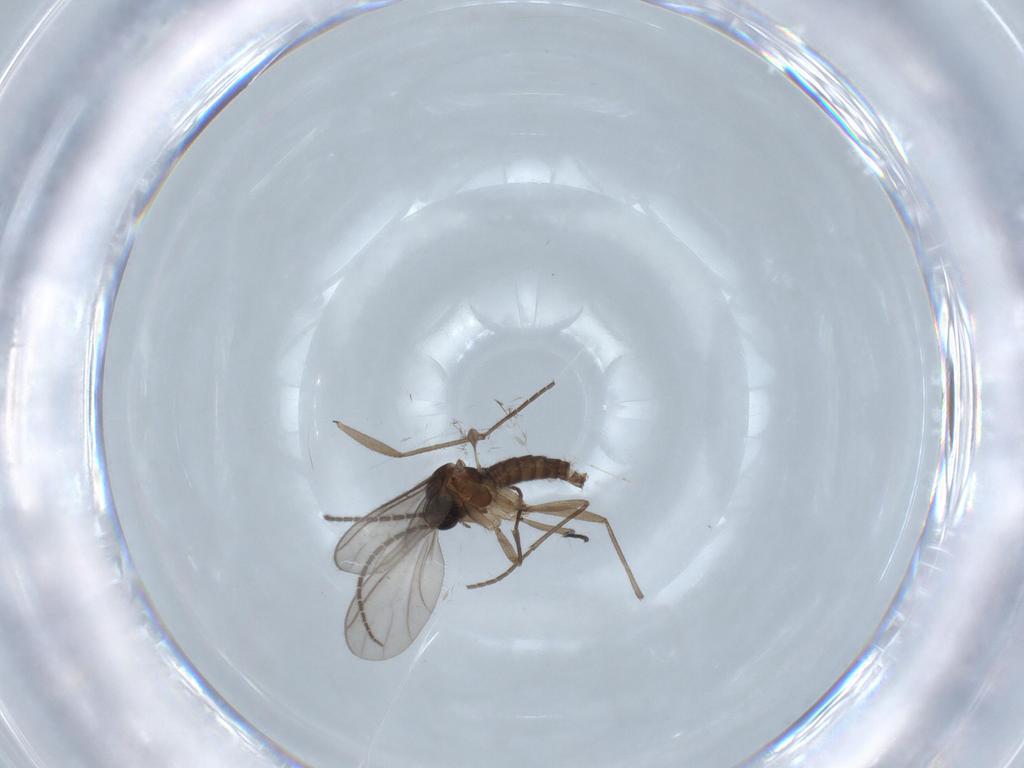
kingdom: Animalia
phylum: Arthropoda
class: Insecta
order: Diptera
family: Sciaridae
